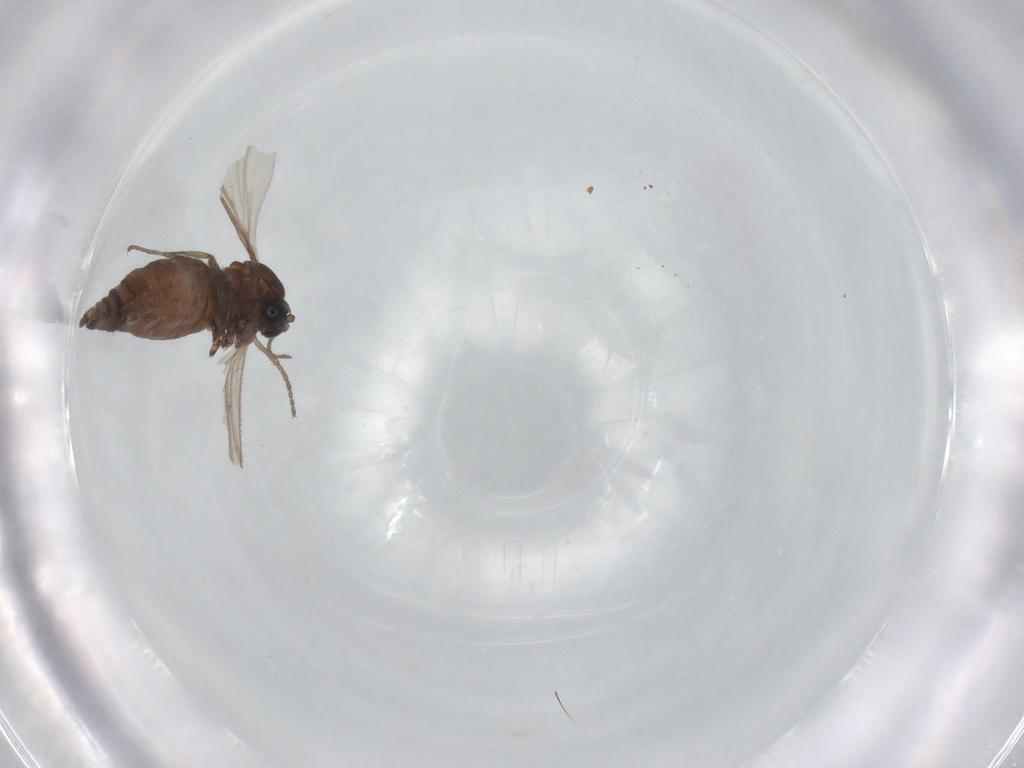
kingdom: Animalia
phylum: Arthropoda
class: Insecta
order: Diptera
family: Sciaridae
